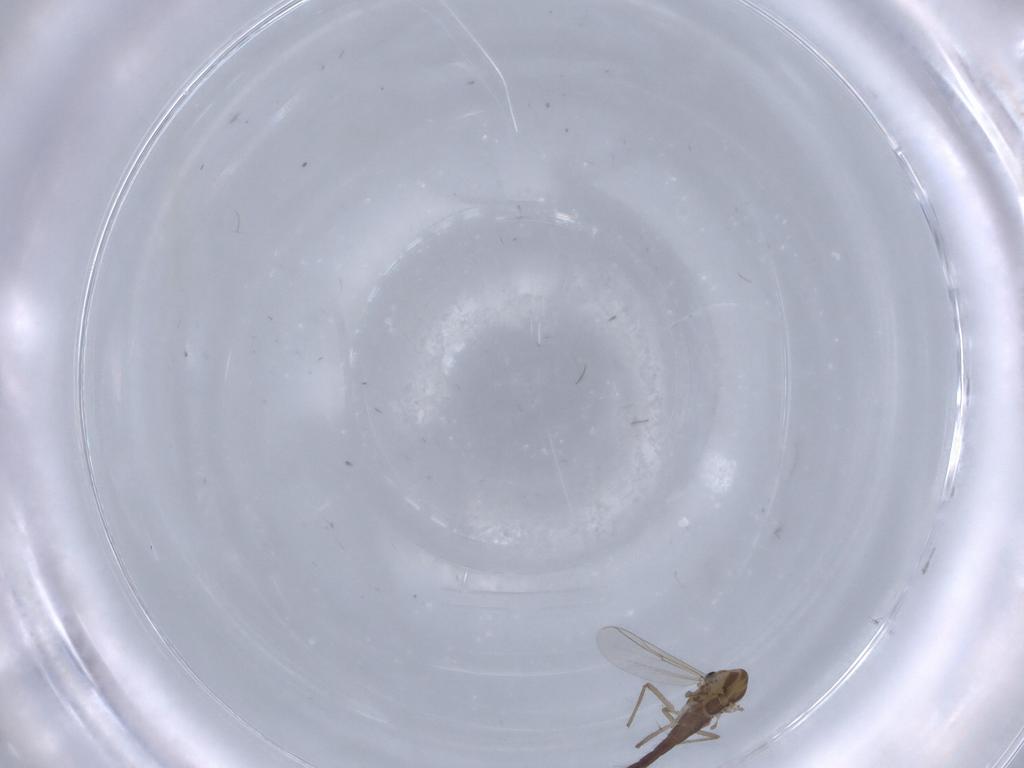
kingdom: Animalia
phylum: Arthropoda
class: Insecta
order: Diptera
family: Chironomidae
